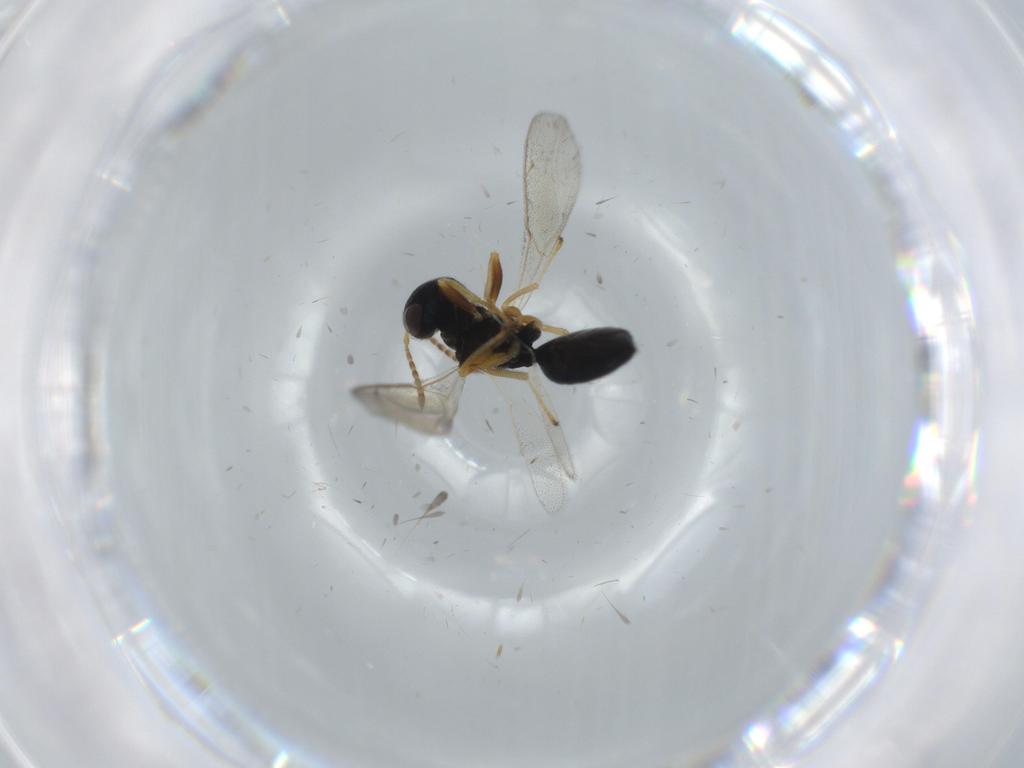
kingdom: Animalia
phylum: Arthropoda
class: Insecta
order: Hymenoptera
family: Pteromalidae
